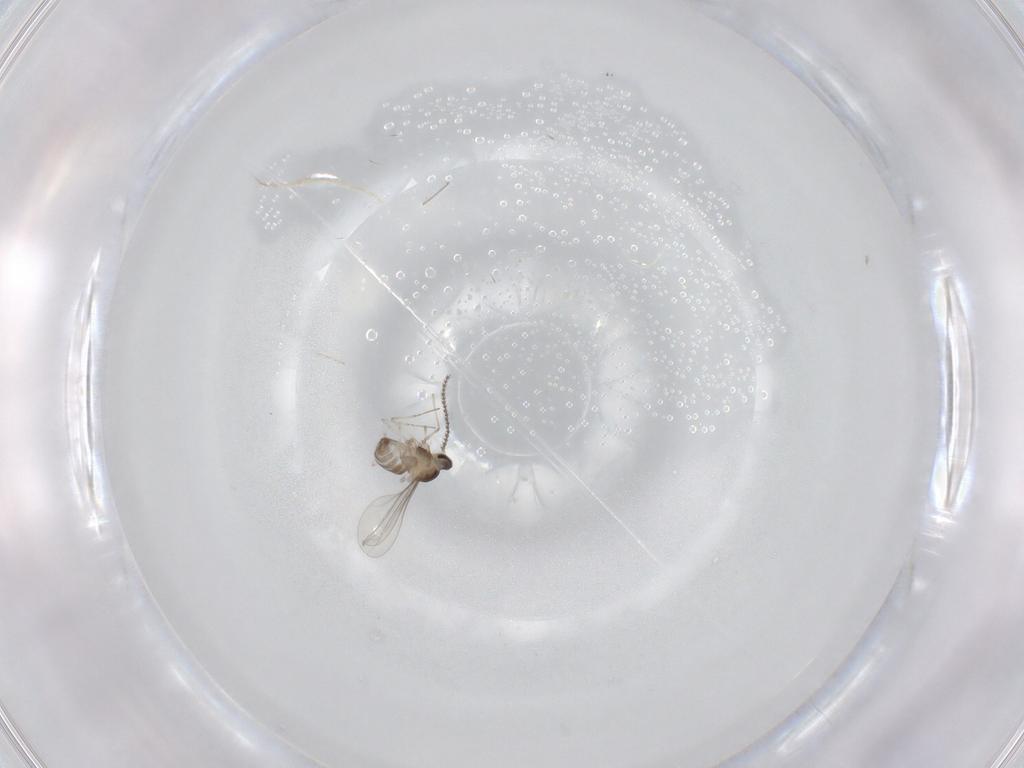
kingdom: Animalia
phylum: Arthropoda
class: Insecta
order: Diptera
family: Cecidomyiidae
